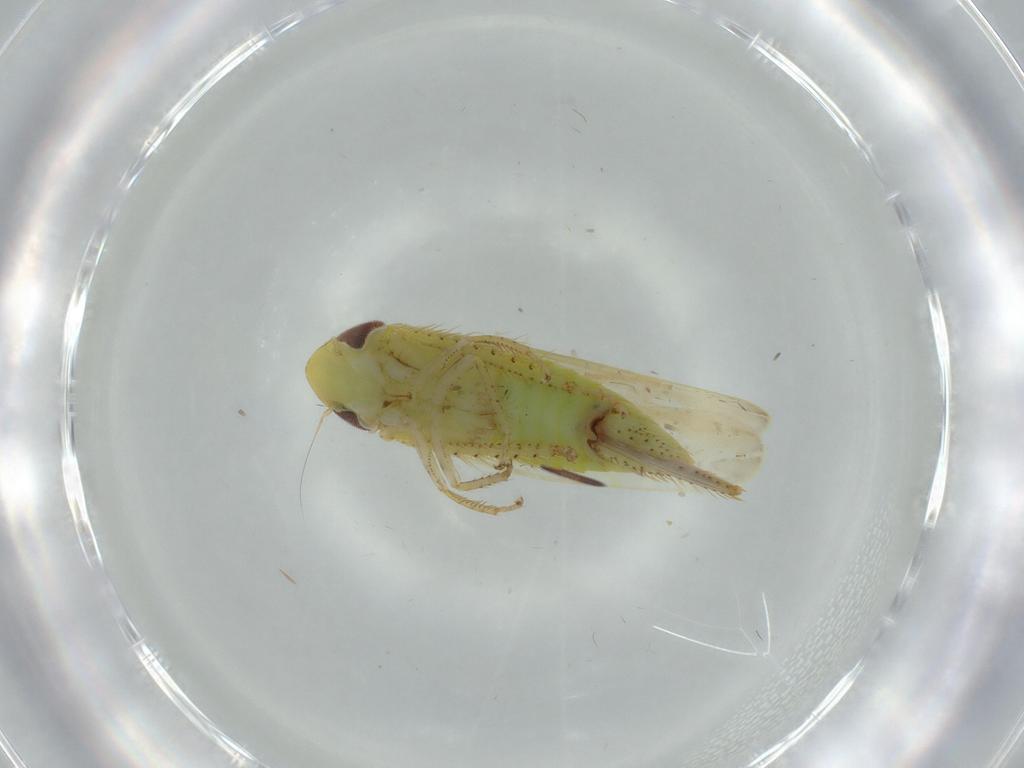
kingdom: Animalia
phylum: Arthropoda
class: Insecta
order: Hemiptera
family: Cicadellidae
